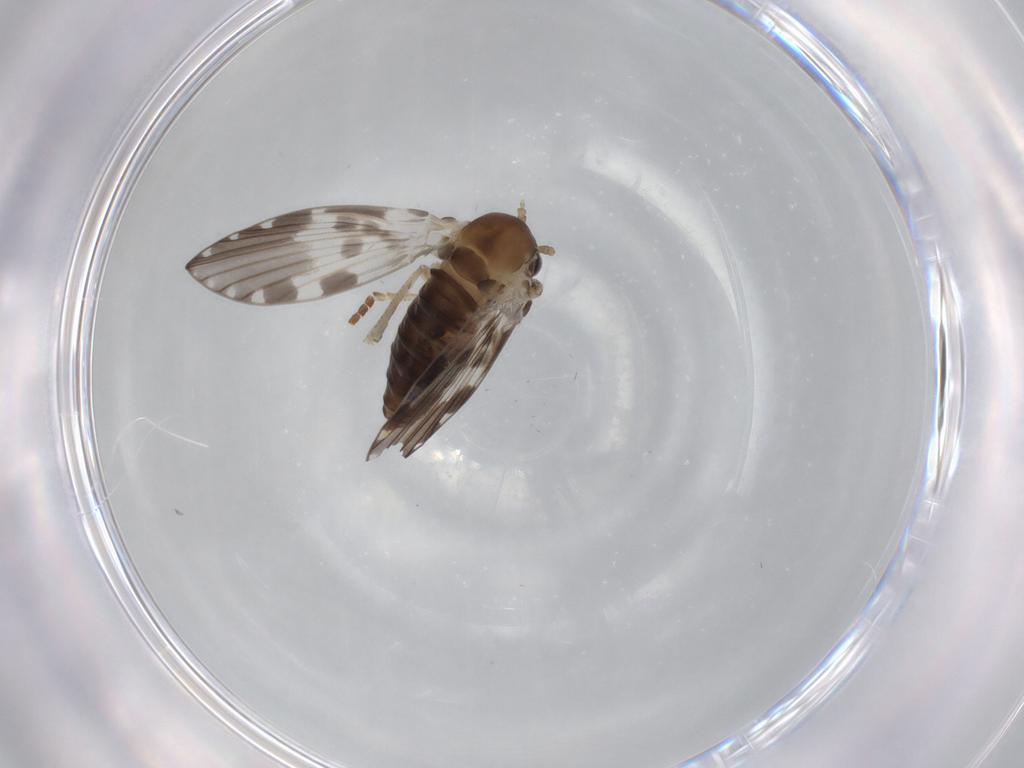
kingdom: Animalia
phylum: Arthropoda
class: Insecta
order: Diptera
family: Psychodidae
